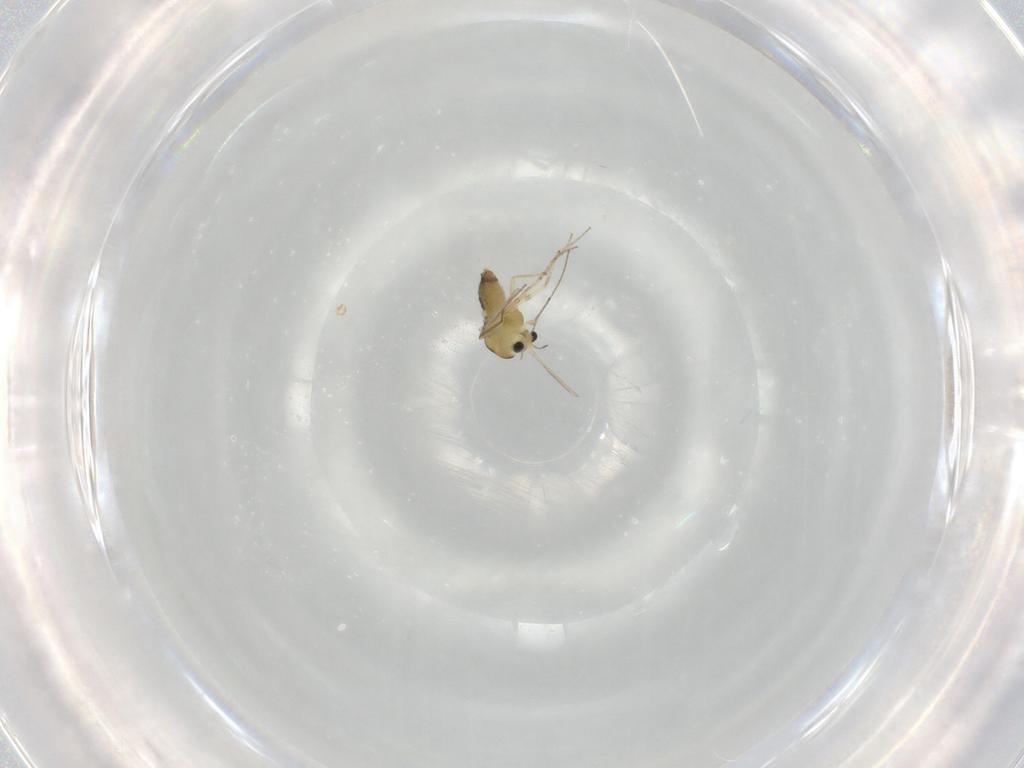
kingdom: Animalia
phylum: Arthropoda
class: Insecta
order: Diptera
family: Chironomidae
